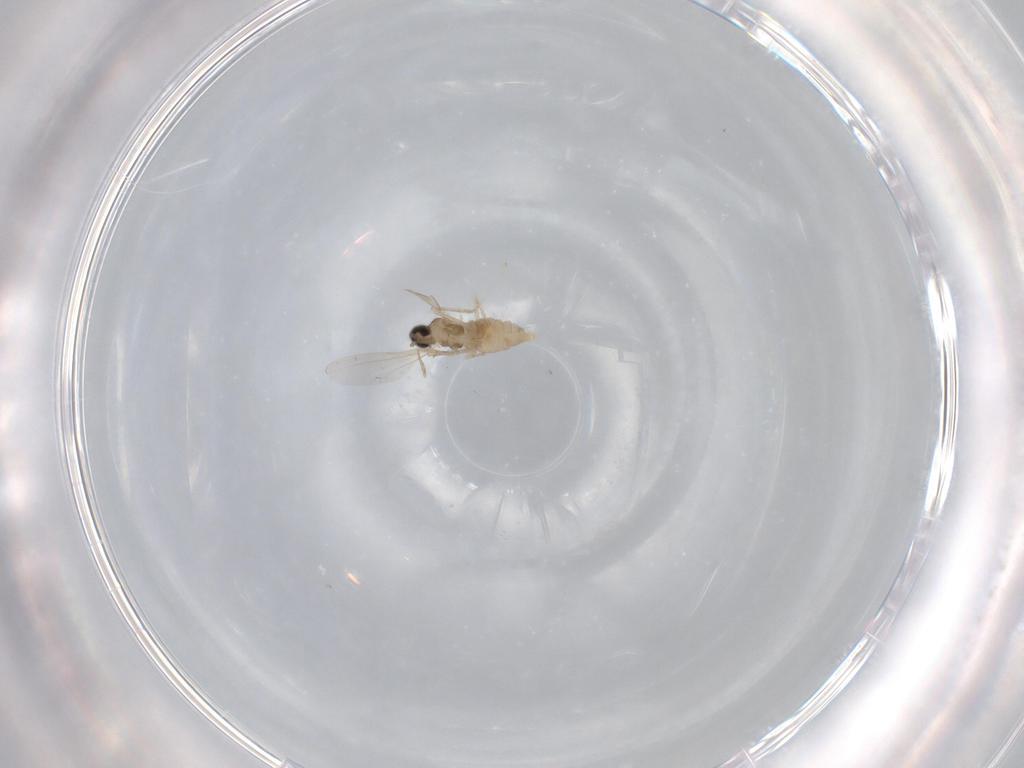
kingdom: Animalia
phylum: Arthropoda
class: Insecta
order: Diptera
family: Cecidomyiidae
